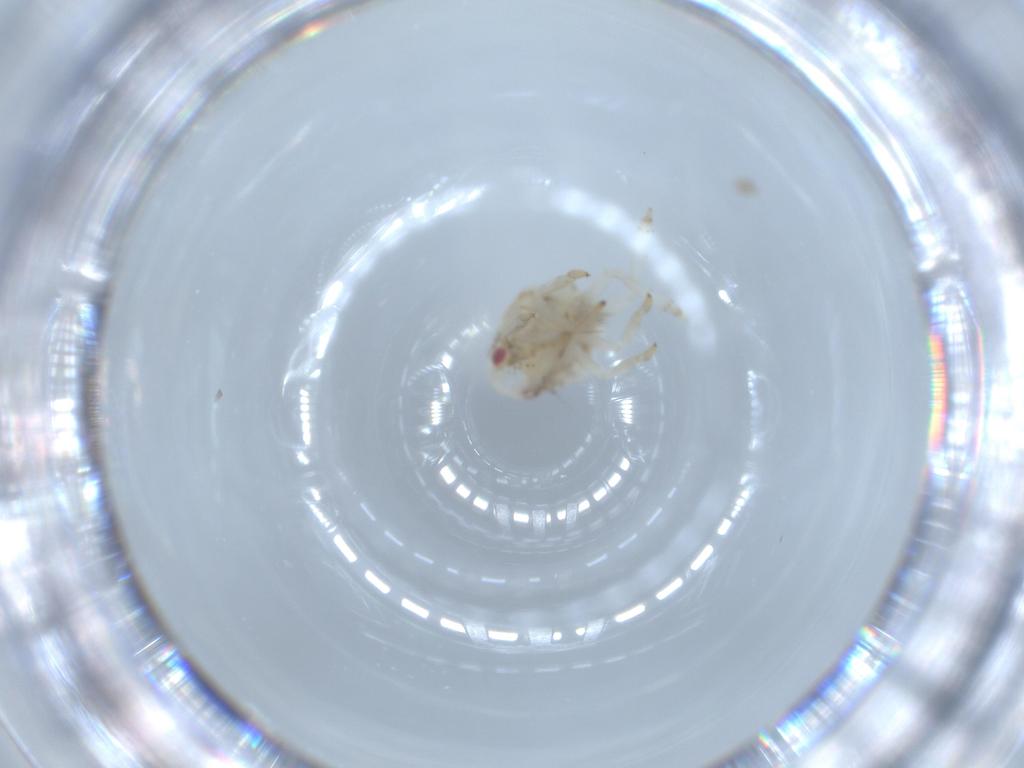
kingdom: Animalia
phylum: Arthropoda
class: Insecta
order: Hemiptera
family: Acanaloniidae
